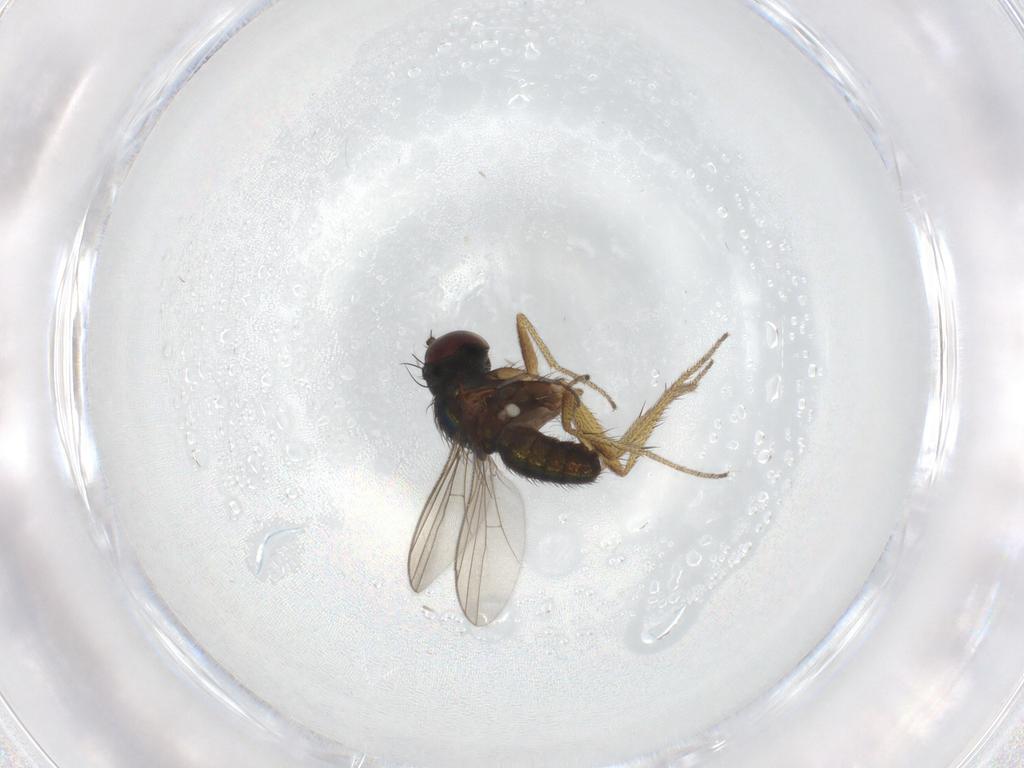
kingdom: Animalia
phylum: Arthropoda
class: Insecta
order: Diptera
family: Sciaridae
